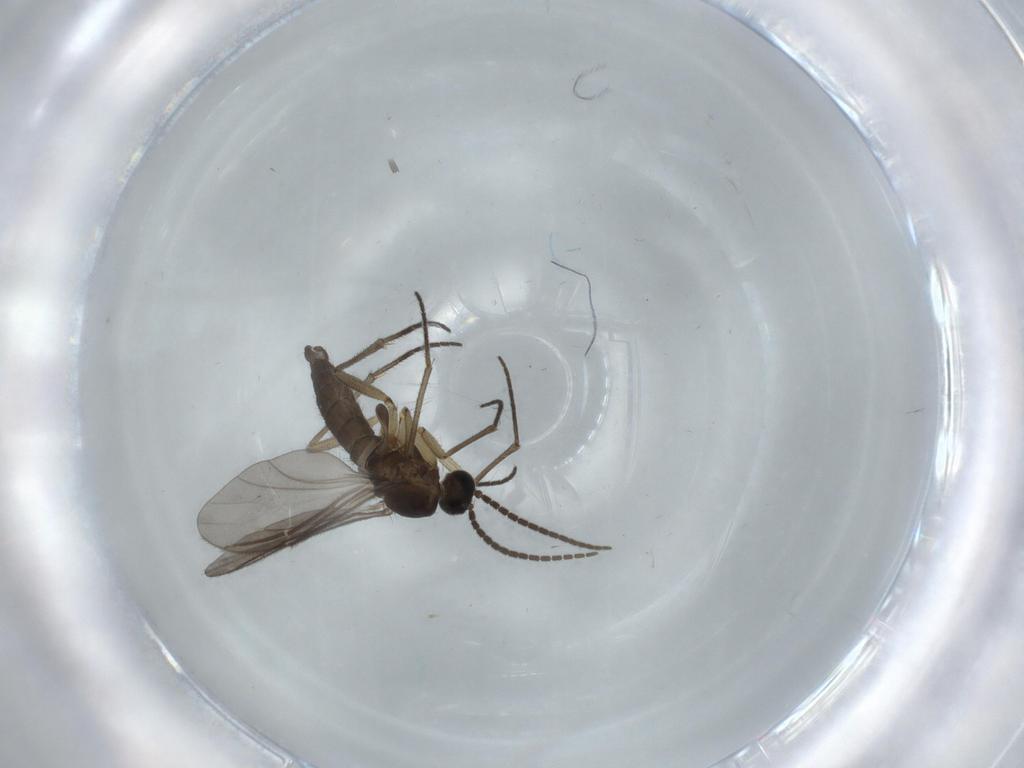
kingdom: Animalia
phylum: Arthropoda
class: Insecta
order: Diptera
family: Sciaridae
